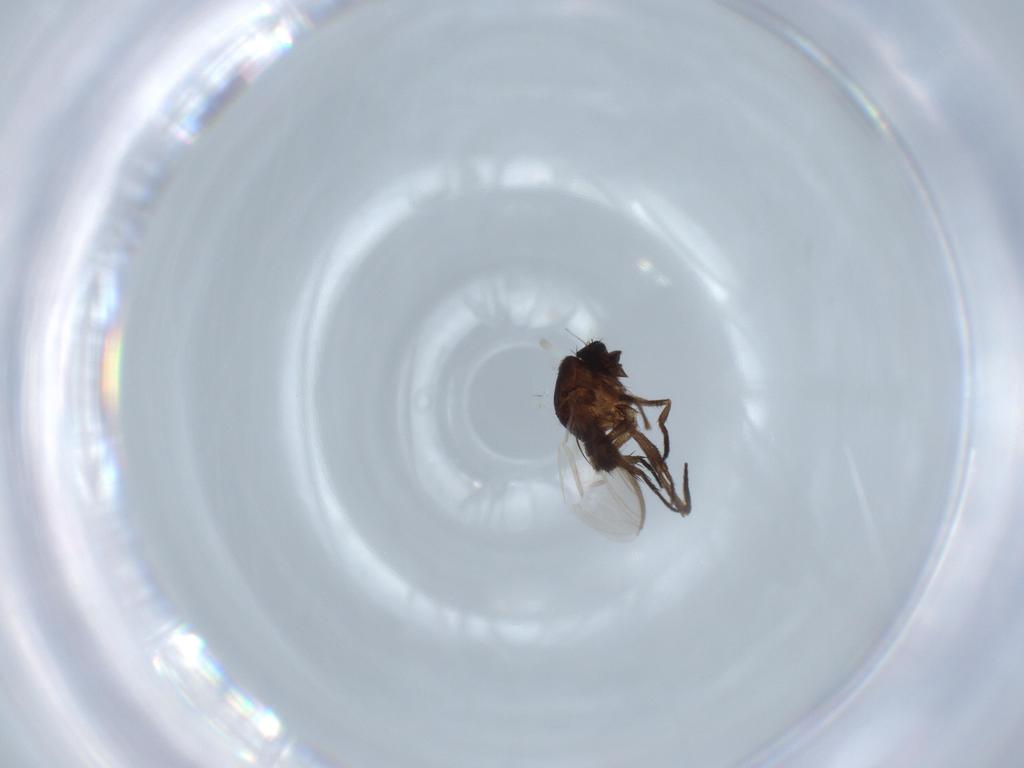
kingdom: Animalia
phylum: Arthropoda
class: Insecta
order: Diptera
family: Sphaeroceridae
